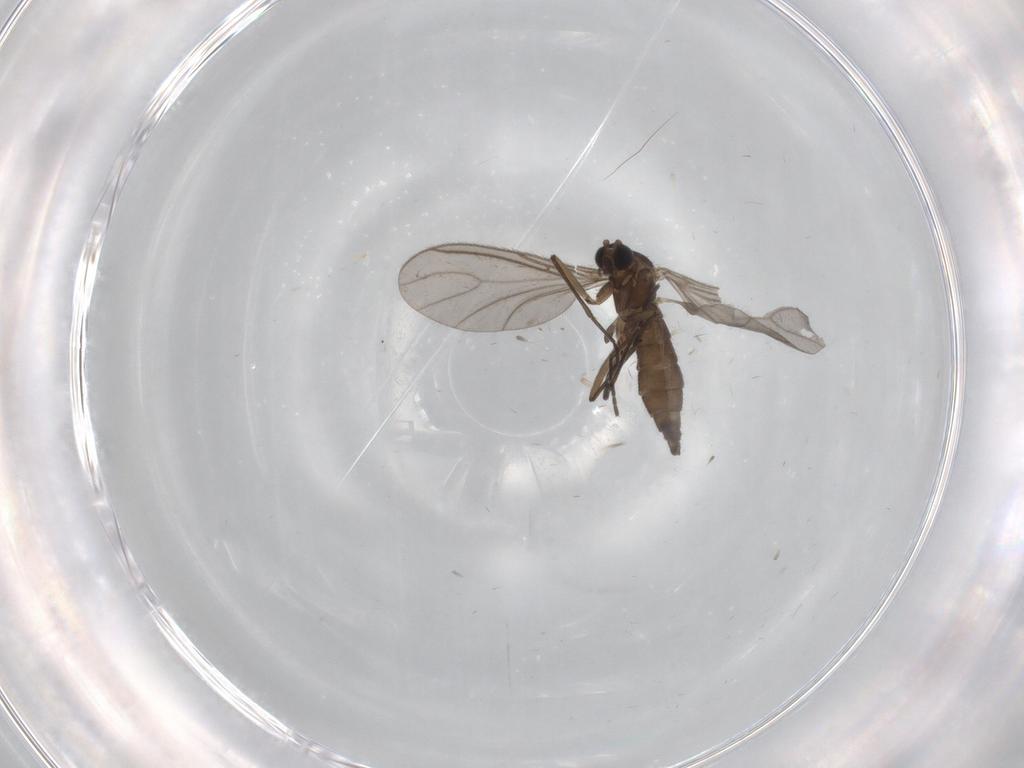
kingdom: Animalia
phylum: Arthropoda
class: Insecta
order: Diptera
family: Sciaridae
